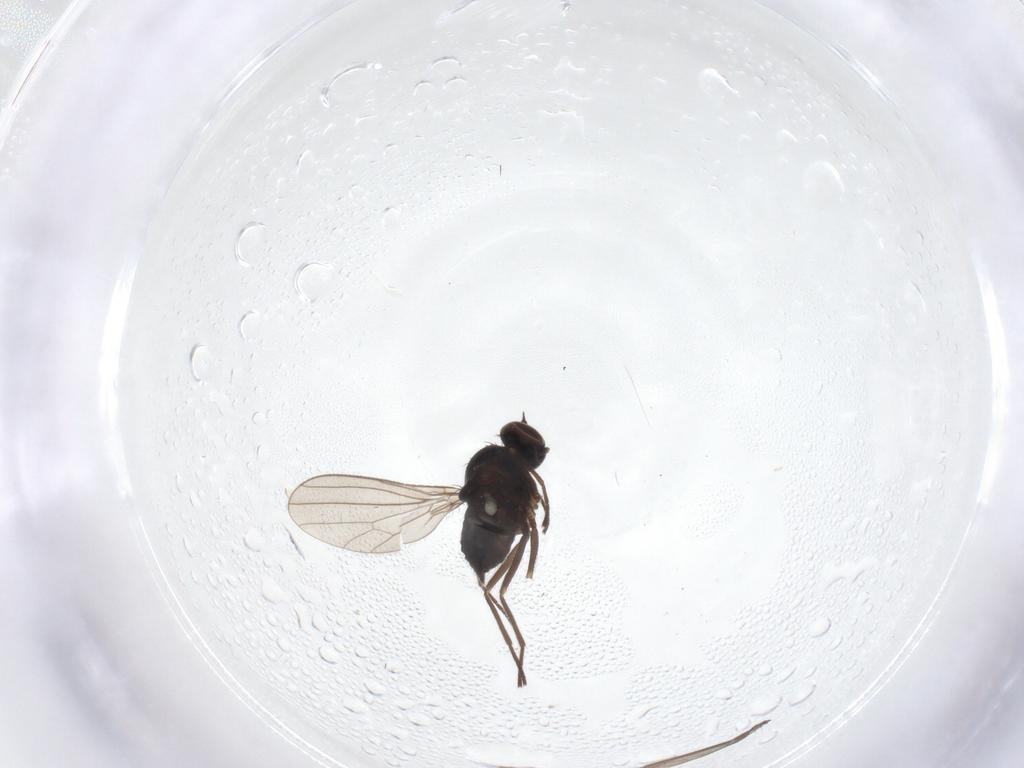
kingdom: Animalia
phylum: Arthropoda
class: Insecta
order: Diptera
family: Dolichopodidae
